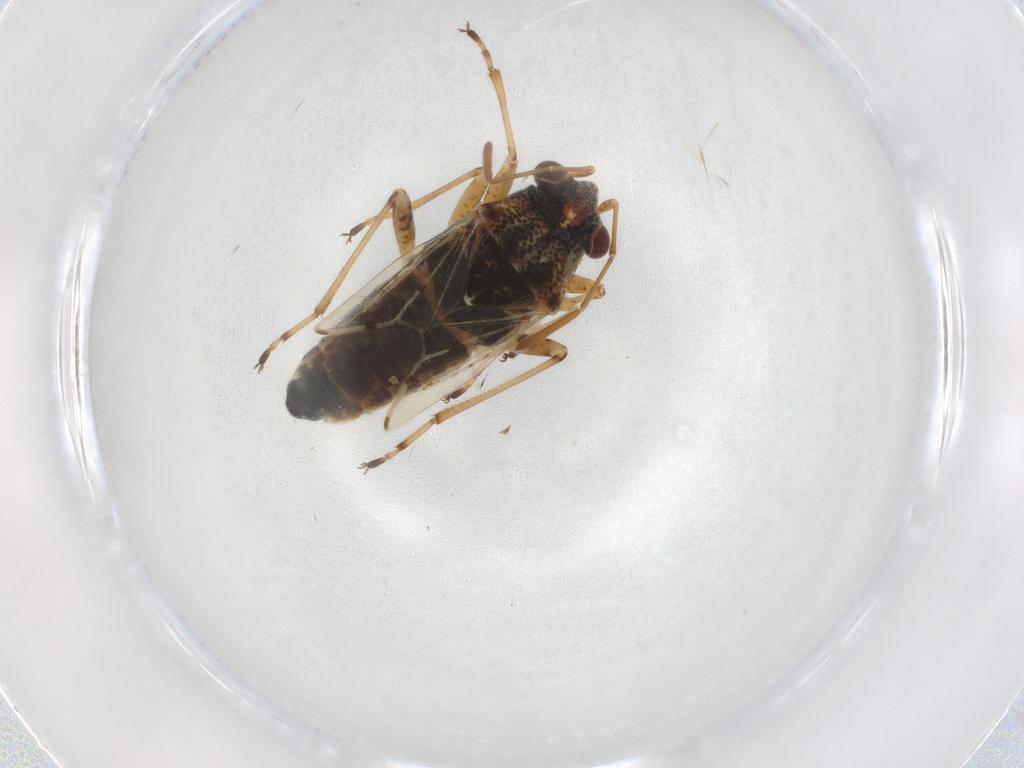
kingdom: Animalia
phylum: Arthropoda
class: Insecta
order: Hemiptera
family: Lygaeidae
